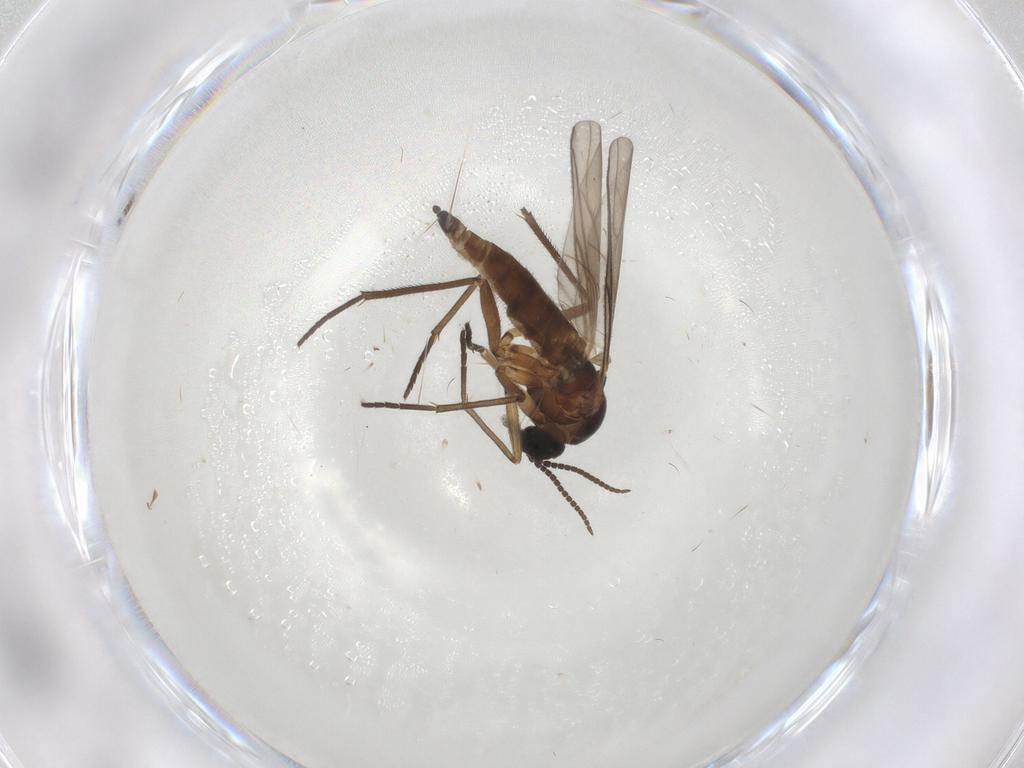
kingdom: Animalia
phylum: Arthropoda
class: Insecta
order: Diptera
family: Sciaridae
